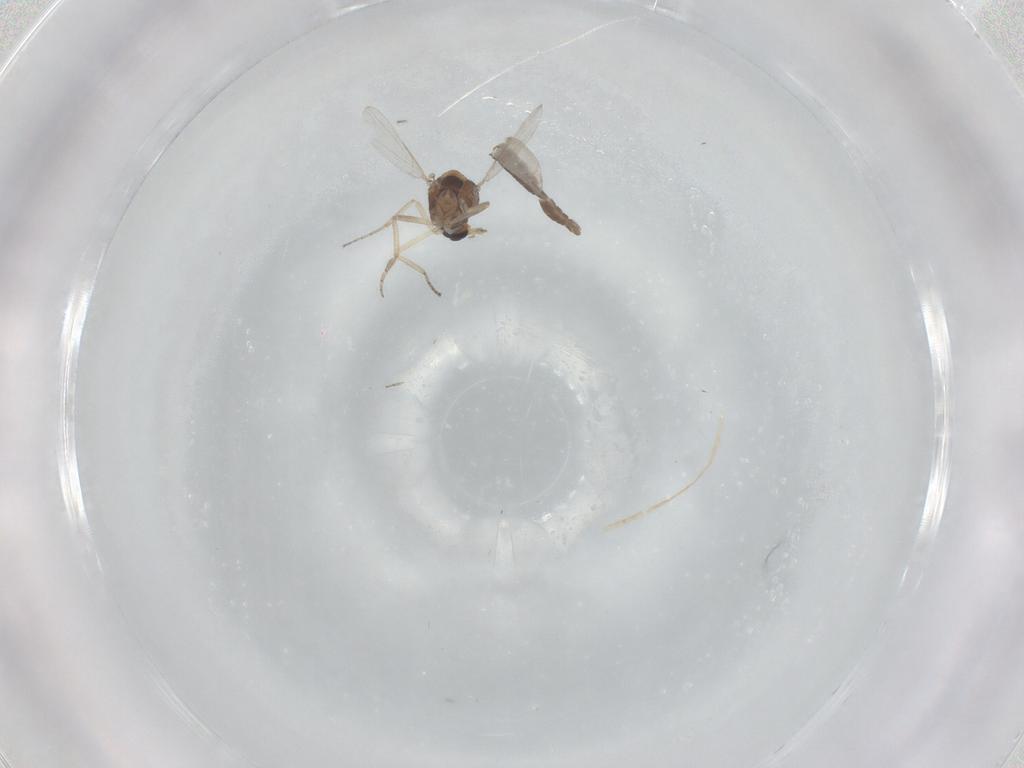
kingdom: Animalia
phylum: Arthropoda
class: Insecta
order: Diptera
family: Ceratopogonidae
